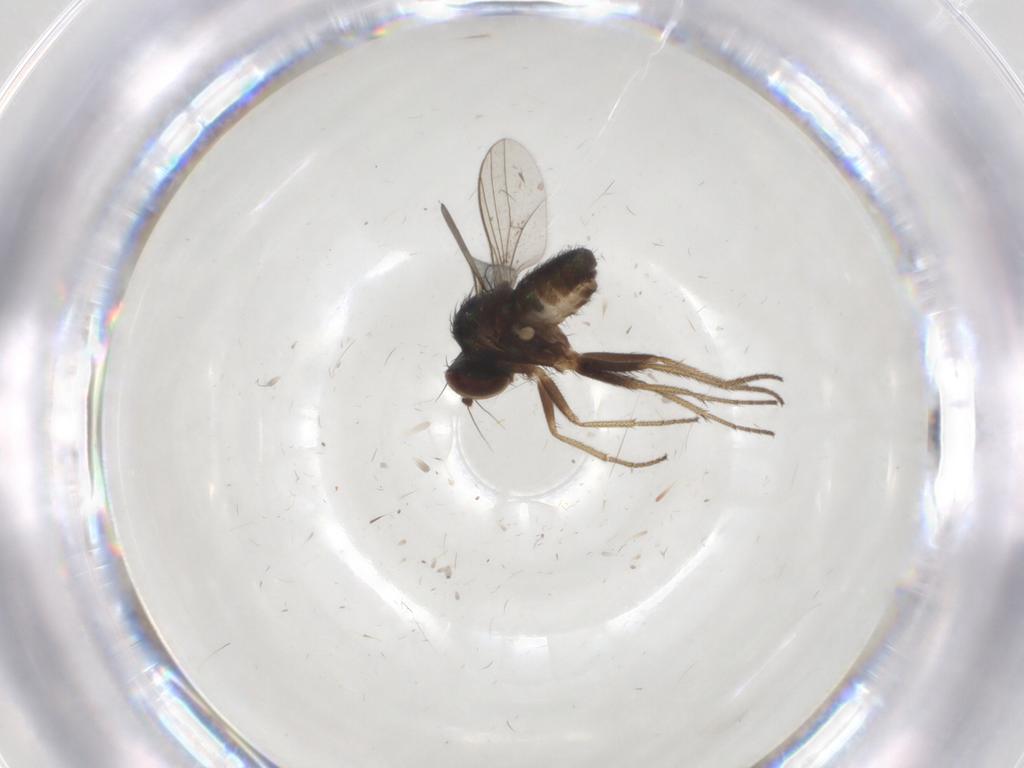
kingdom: Animalia
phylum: Arthropoda
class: Insecta
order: Diptera
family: Dolichopodidae
